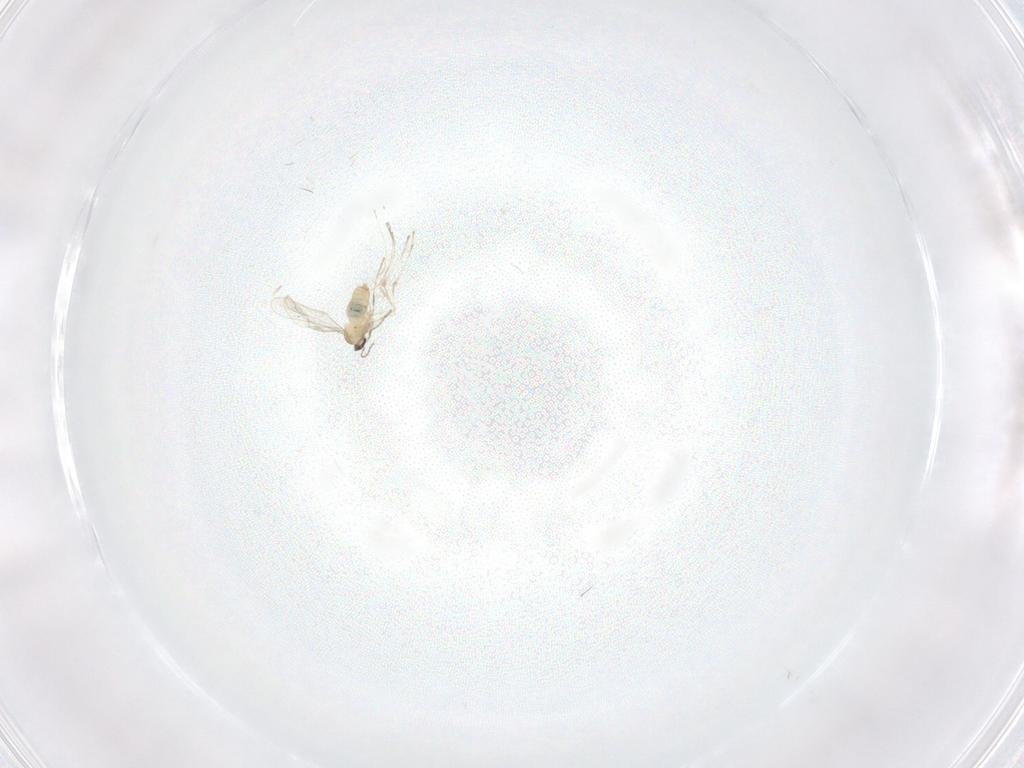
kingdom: Animalia
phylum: Arthropoda
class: Insecta
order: Diptera
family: Cecidomyiidae
